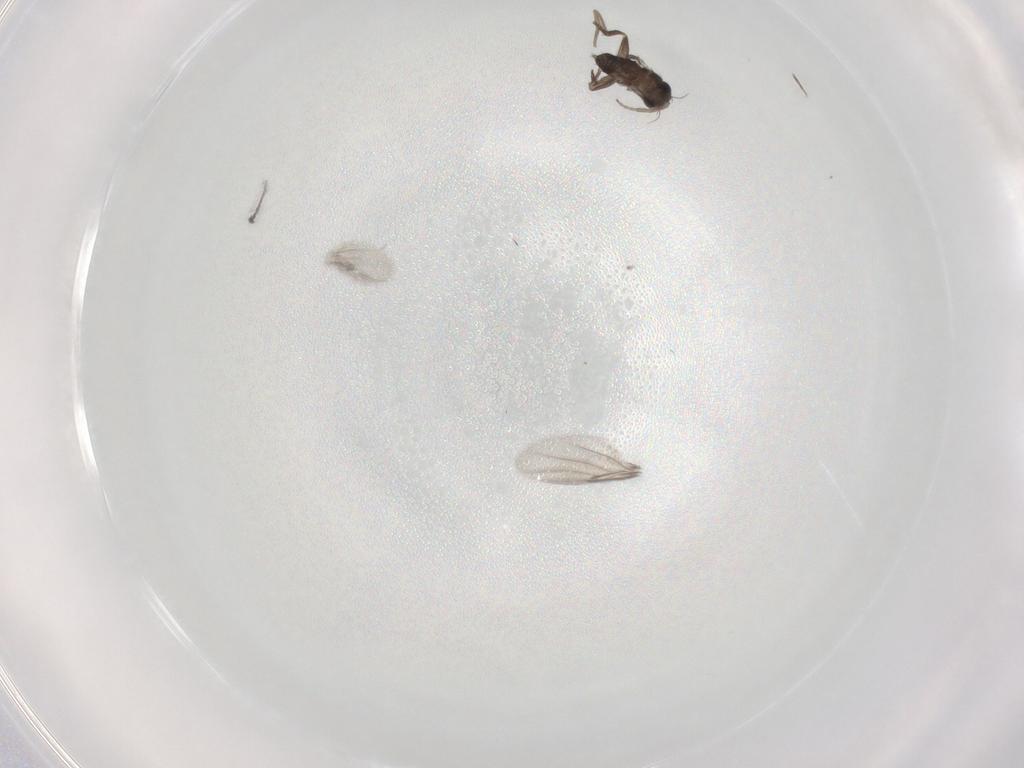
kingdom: Animalia
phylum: Arthropoda
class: Insecta
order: Diptera
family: Phoridae
